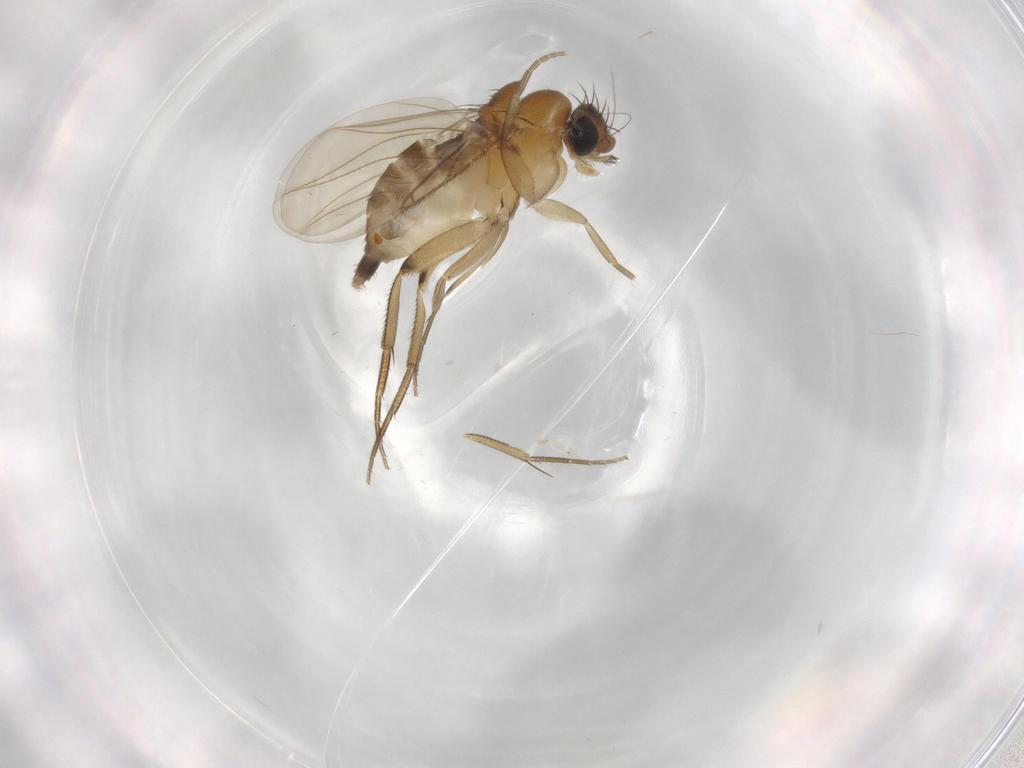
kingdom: Animalia
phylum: Arthropoda
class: Insecta
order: Diptera
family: Phoridae
